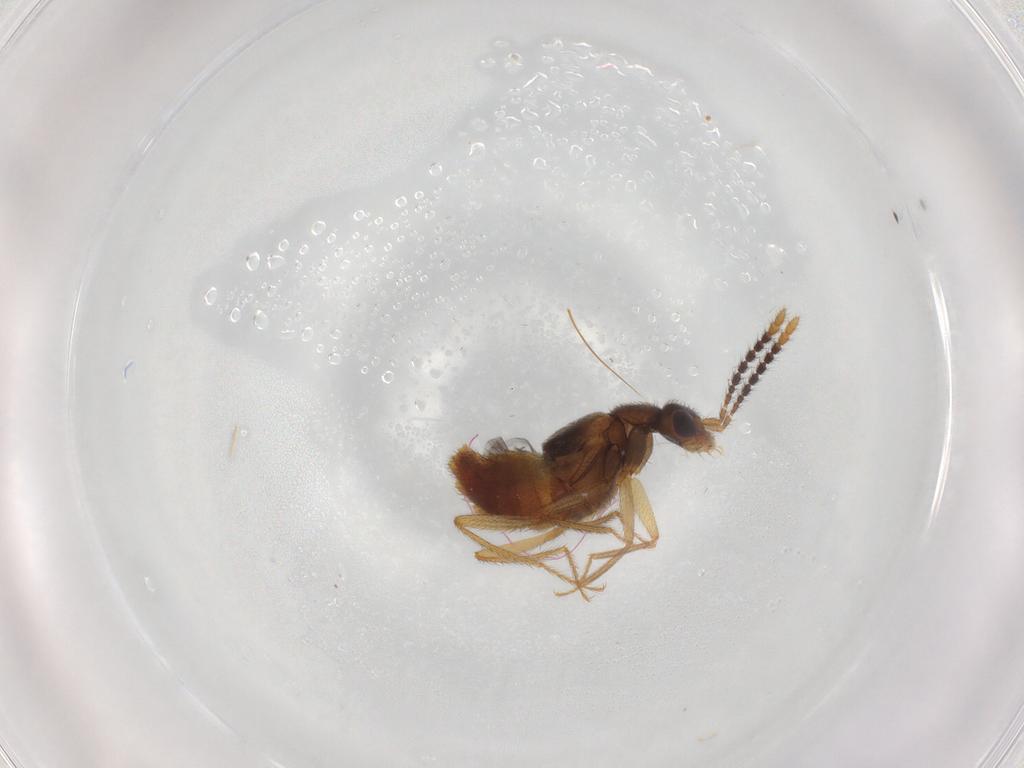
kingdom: Animalia
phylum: Arthropoda
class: Insecta
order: Coleoptera
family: Staphylinidae
